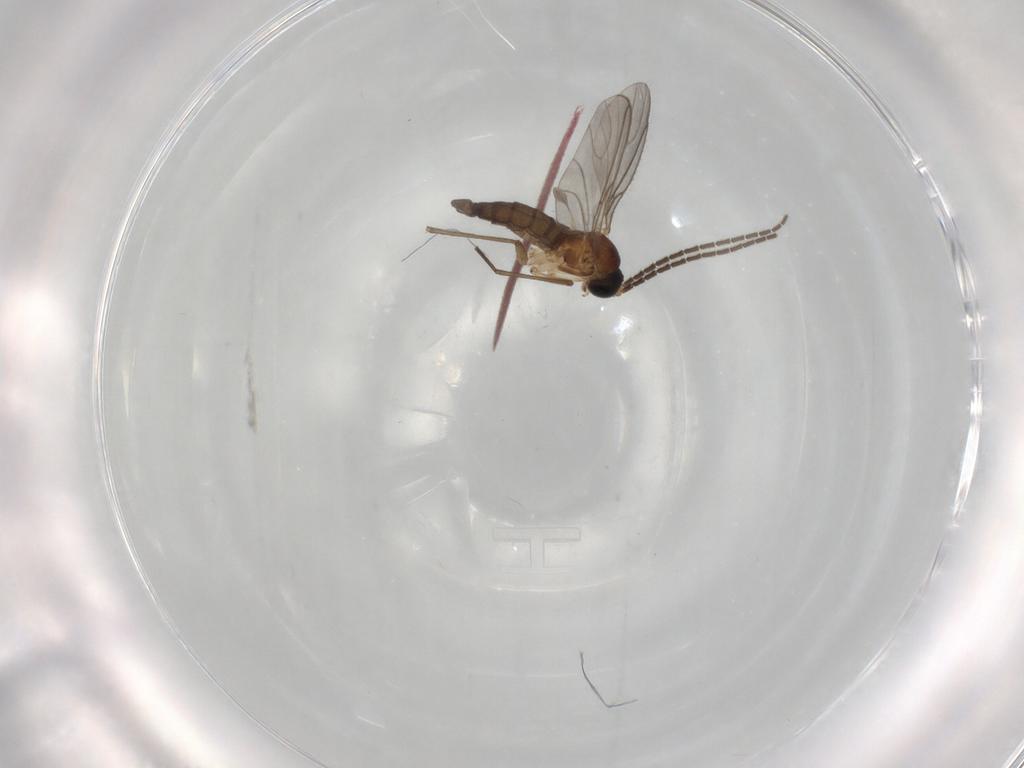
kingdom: Animalia
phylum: Arthropoda
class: Insecta
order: Diptera
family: Sciaridae
